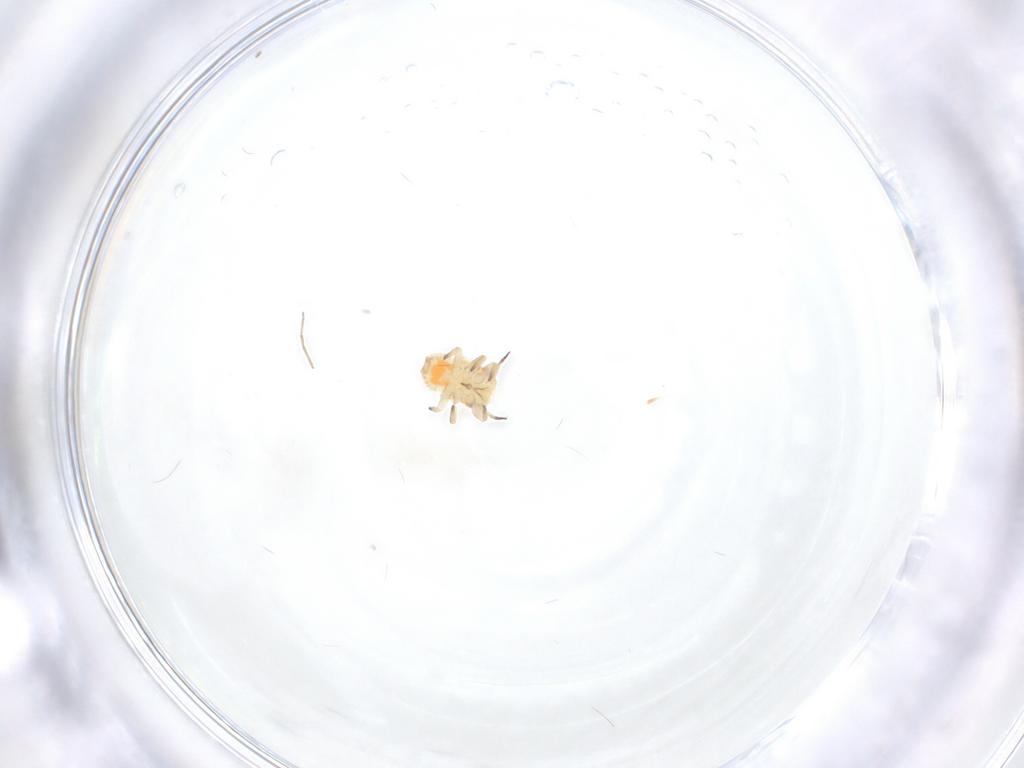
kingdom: Animalia
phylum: Arthropoda
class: Insecta
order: Hemiptera
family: Psyllidae
